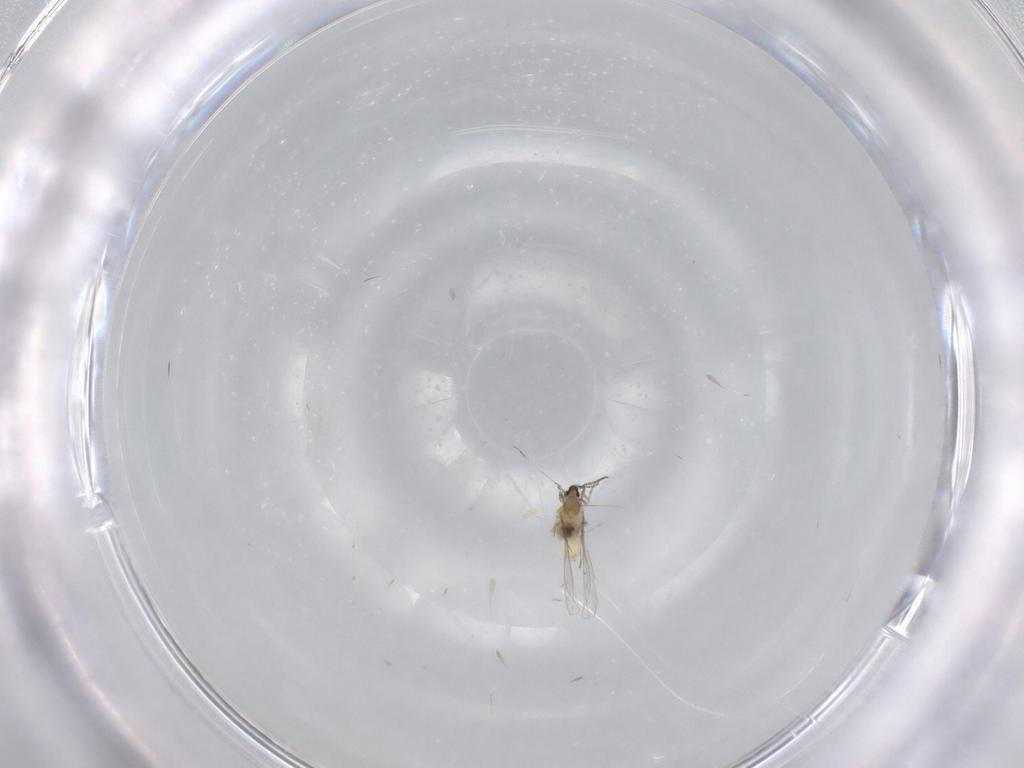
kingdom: Animalia
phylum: Arthropoda
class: Insecta
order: Diptera
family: Cecidomyiidae
